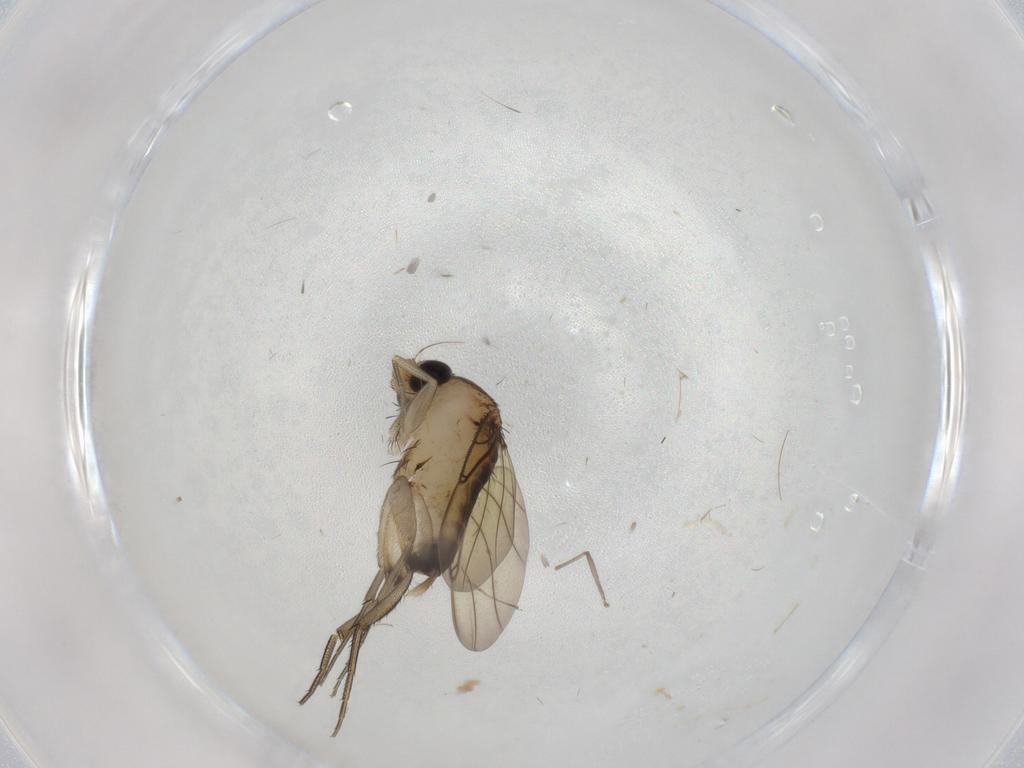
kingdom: Animalia
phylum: Arthropoda
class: Insecta
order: Diptera
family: Phoridae
